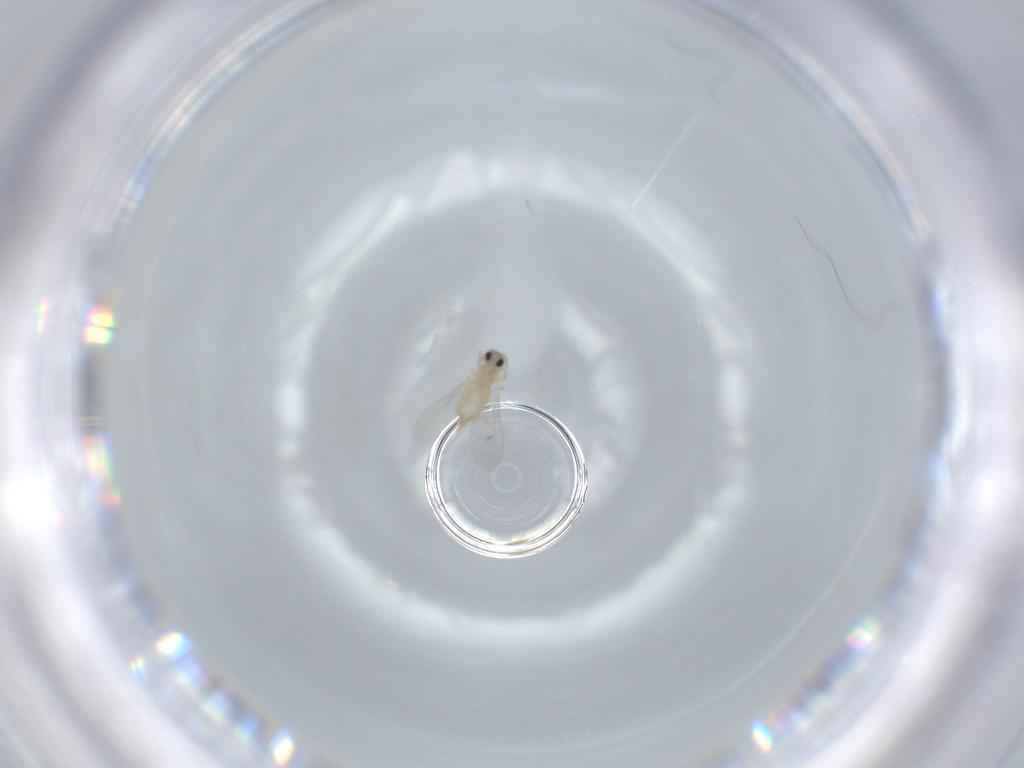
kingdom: Animalia
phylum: Arthropoda
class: Insecta
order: Diptera
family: Cecidomyiidae
